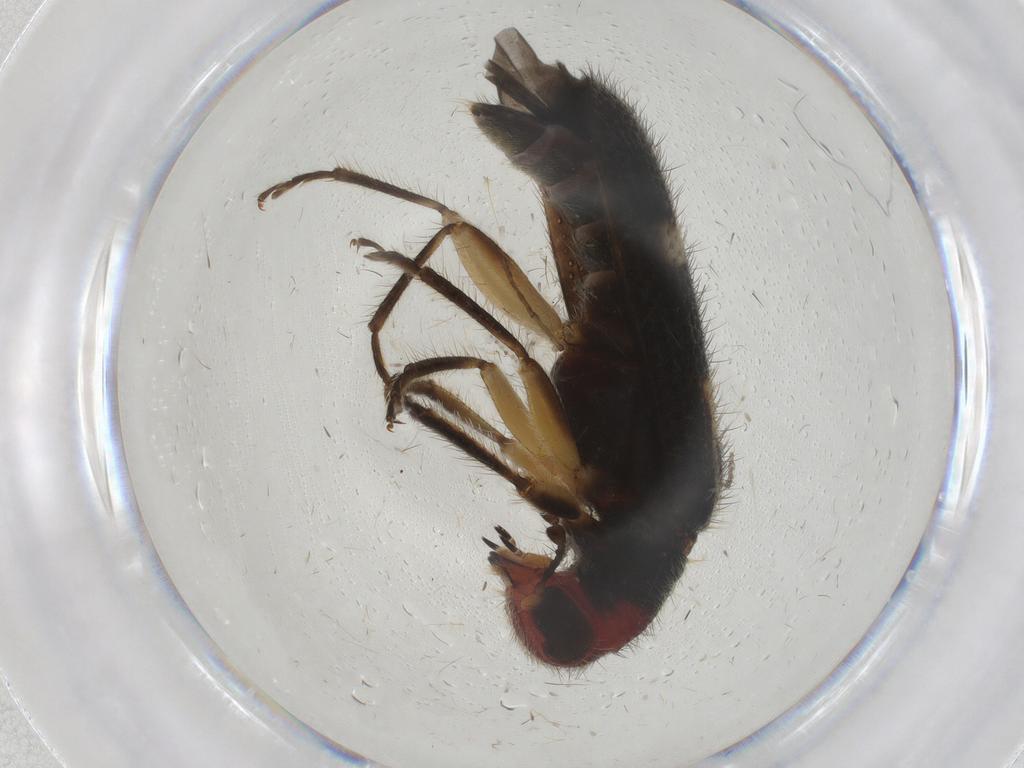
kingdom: Animalia
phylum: Arthropoda
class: Insecta
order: Coleoptera
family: Cleridae
